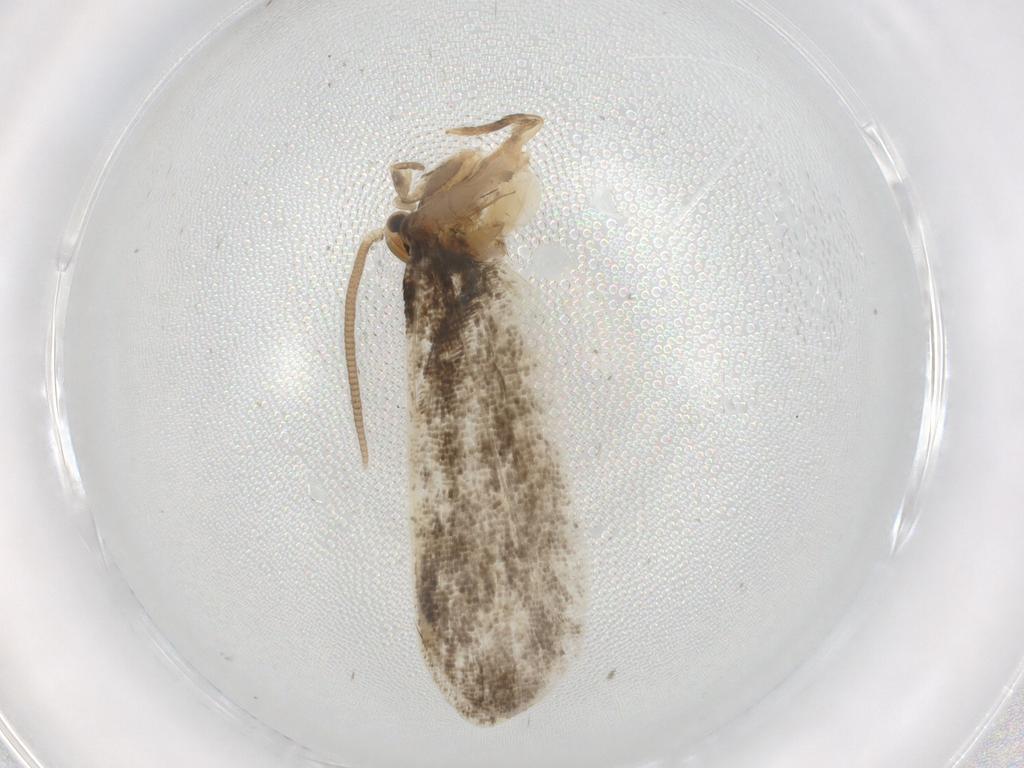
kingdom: Animalia
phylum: Arthropoda
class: Insecta
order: Lepidoptera
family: Dryadaulidae
